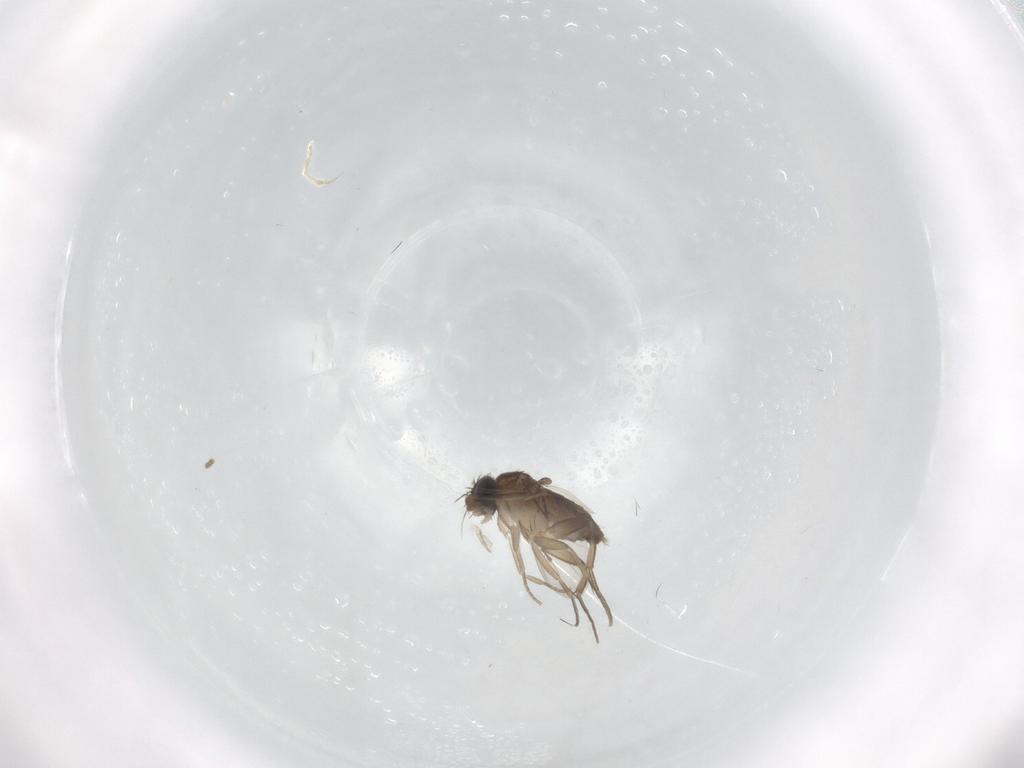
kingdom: Animalia
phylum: Arthropoda
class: Insecta
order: Diptera
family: Phoridae
